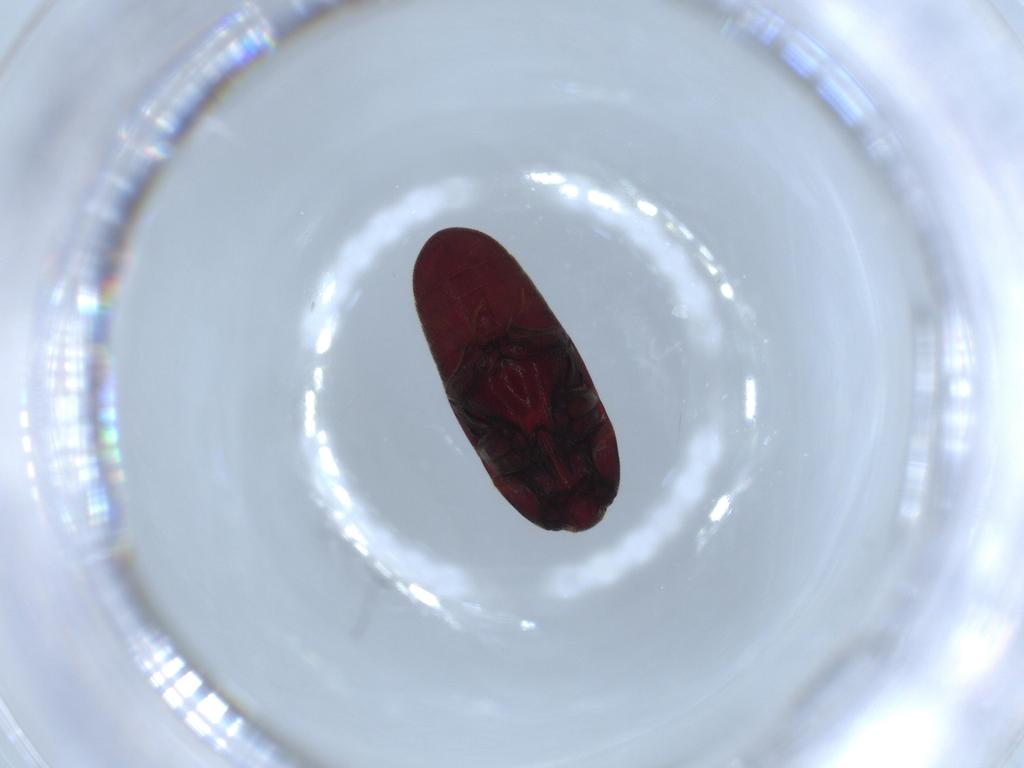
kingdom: Animalia
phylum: Arthropoda
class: Insecta
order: Coleoptera
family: Throscidae
